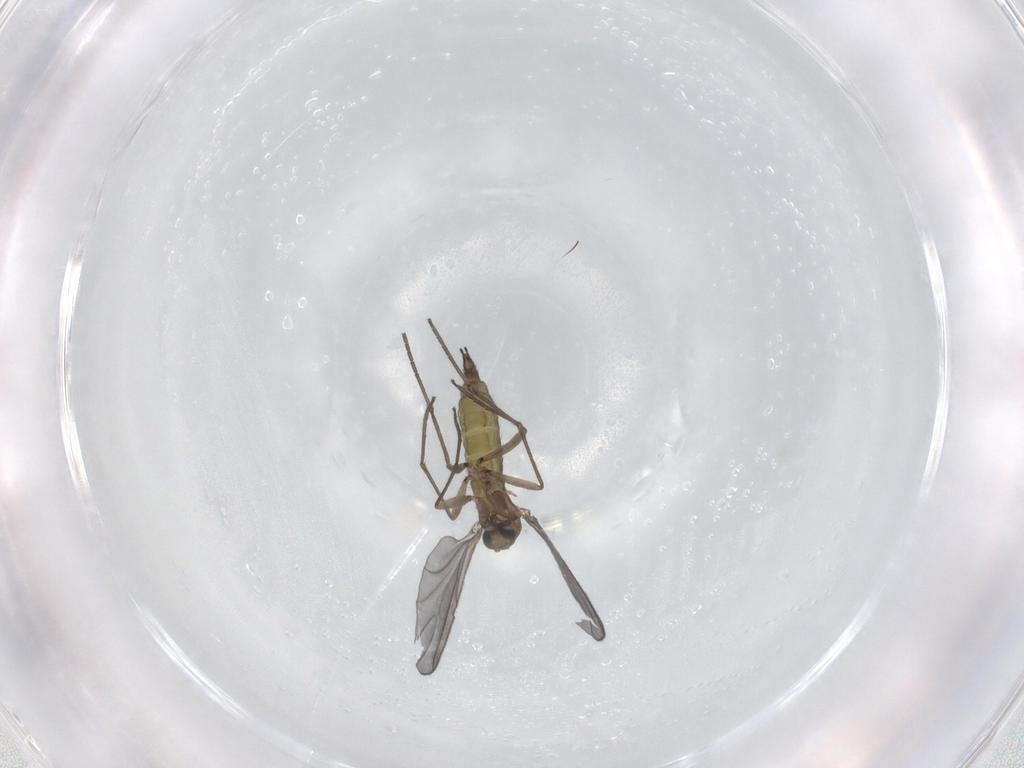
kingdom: Animalia
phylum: Arthropoda
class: Insecta
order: Diptera
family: Sciaridae
